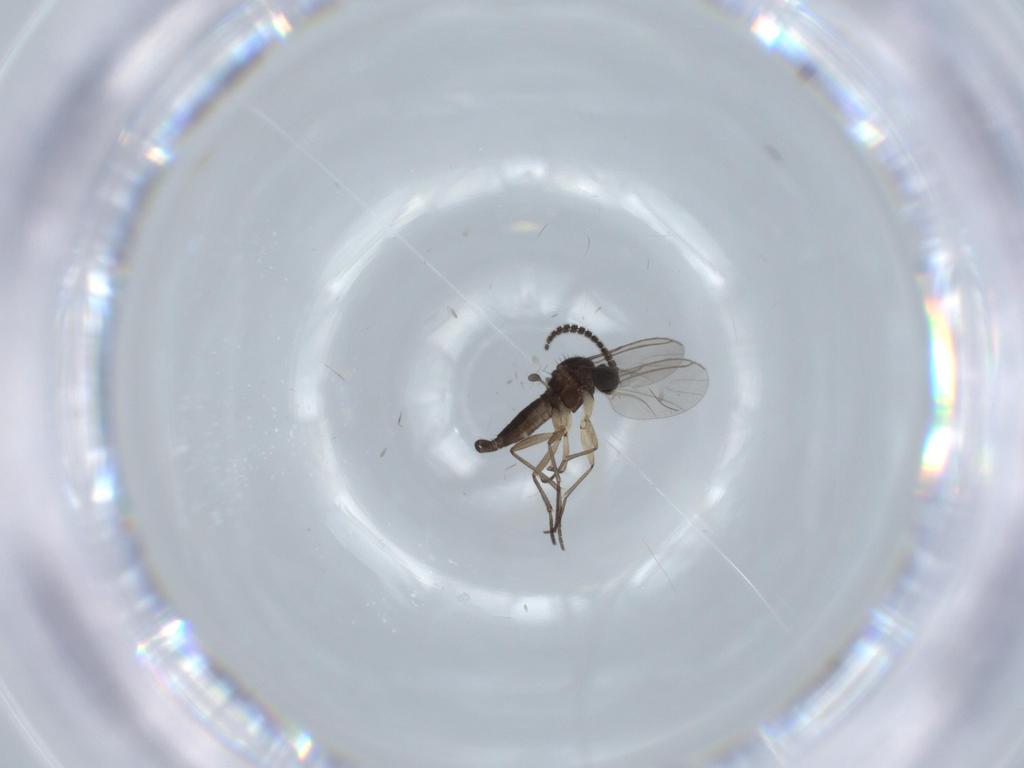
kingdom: Animalia
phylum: Arthropoda
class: Insecta
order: Diptera
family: Sciaridae
